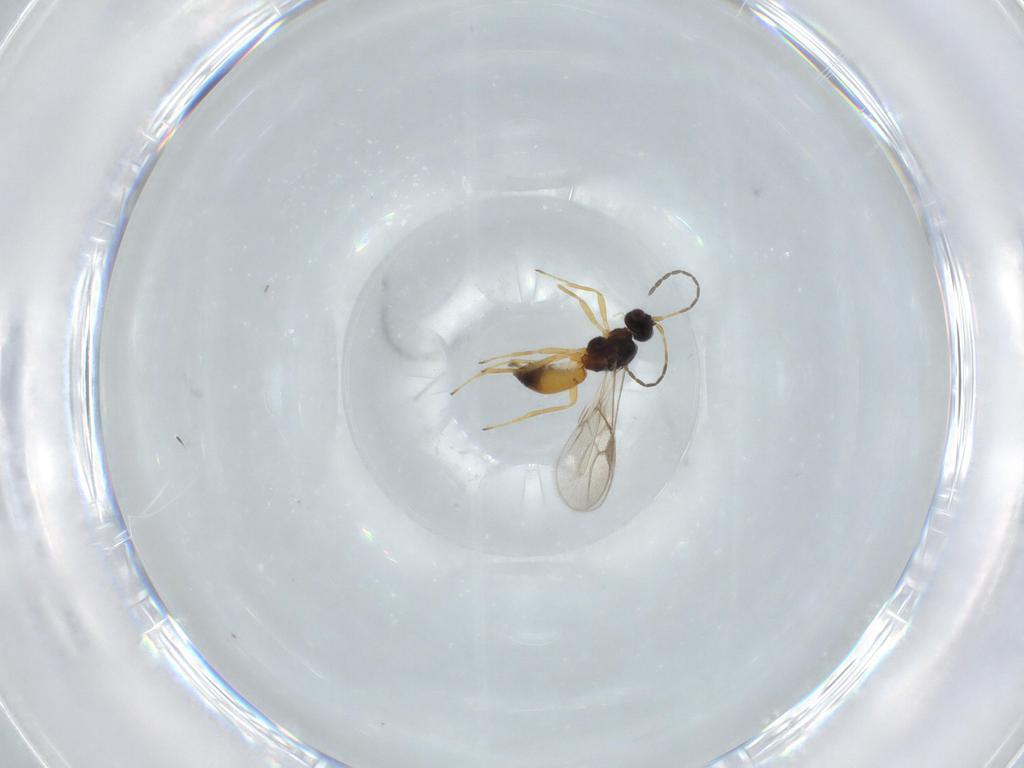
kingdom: Animalia
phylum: Arthropoda
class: Insecta
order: Hymenoptera
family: Braconidae
